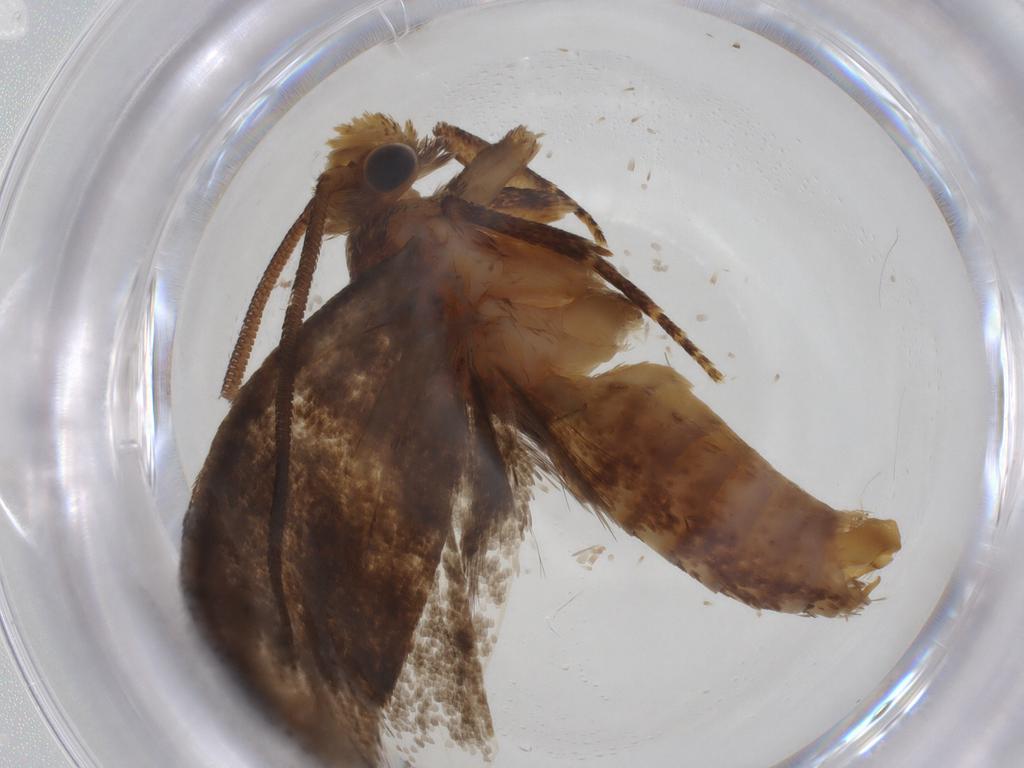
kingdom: Animalia
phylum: Arthropoda
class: Insecta
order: Lepidoptera
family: Tineidae
